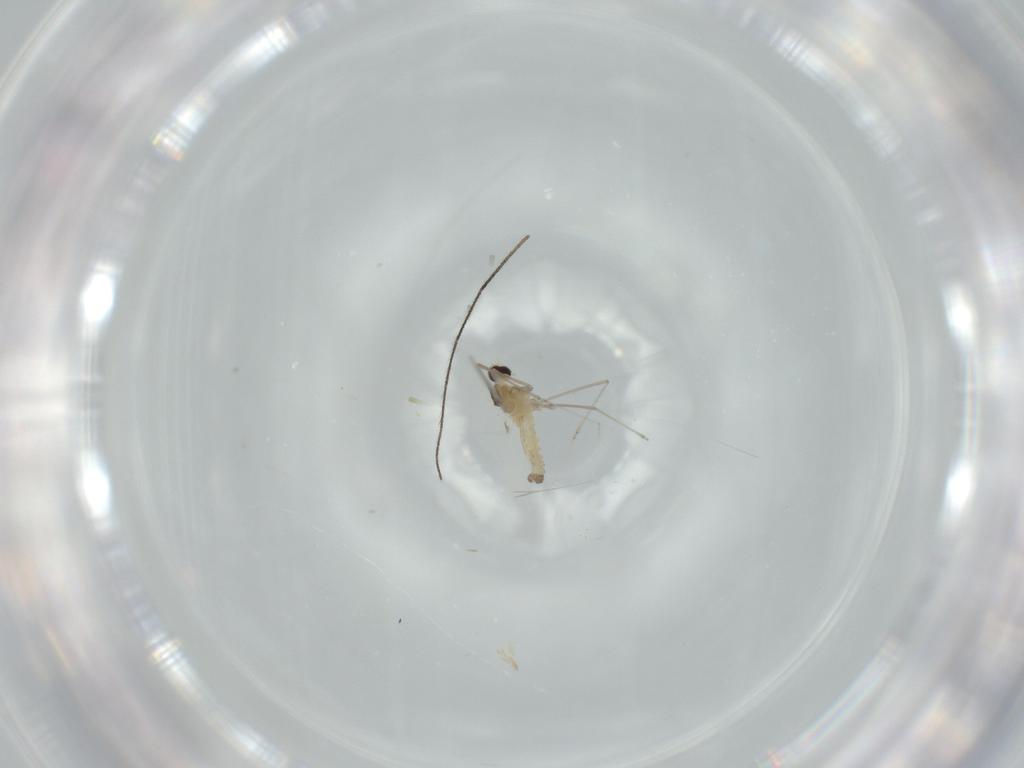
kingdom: Animalia
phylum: Arthropoda
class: Insecta
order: Diptera
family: Cecidomyiidae
